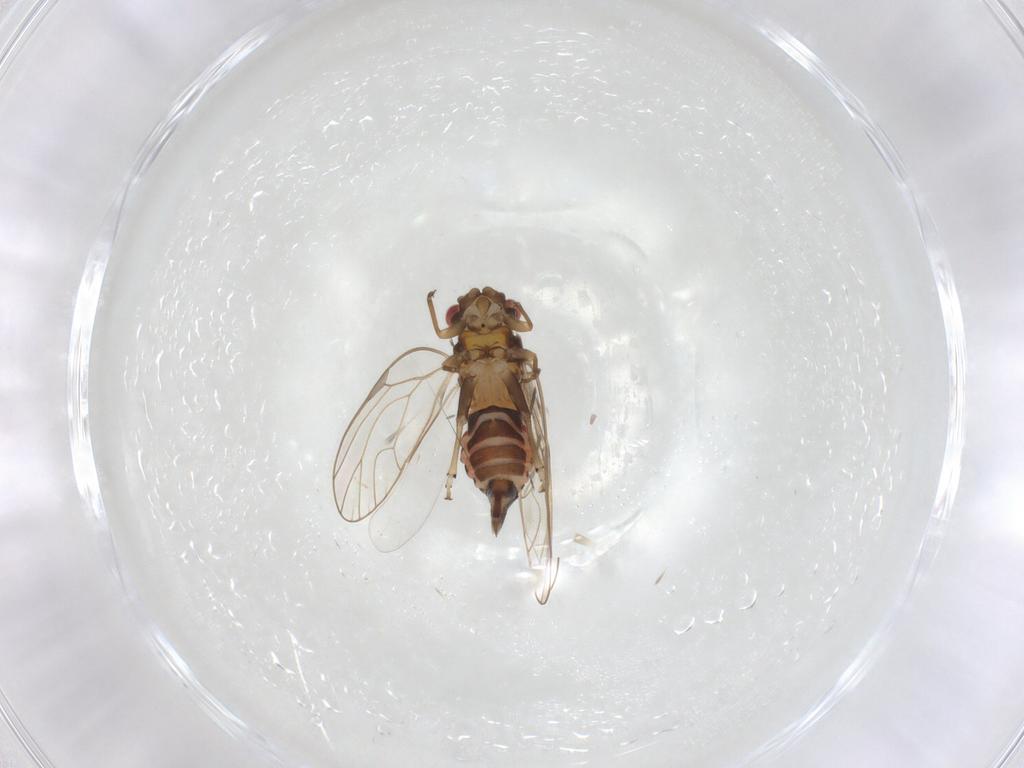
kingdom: Animalia
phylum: Arthropoda
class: Insecta
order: Hemiptera
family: Psyllidae
